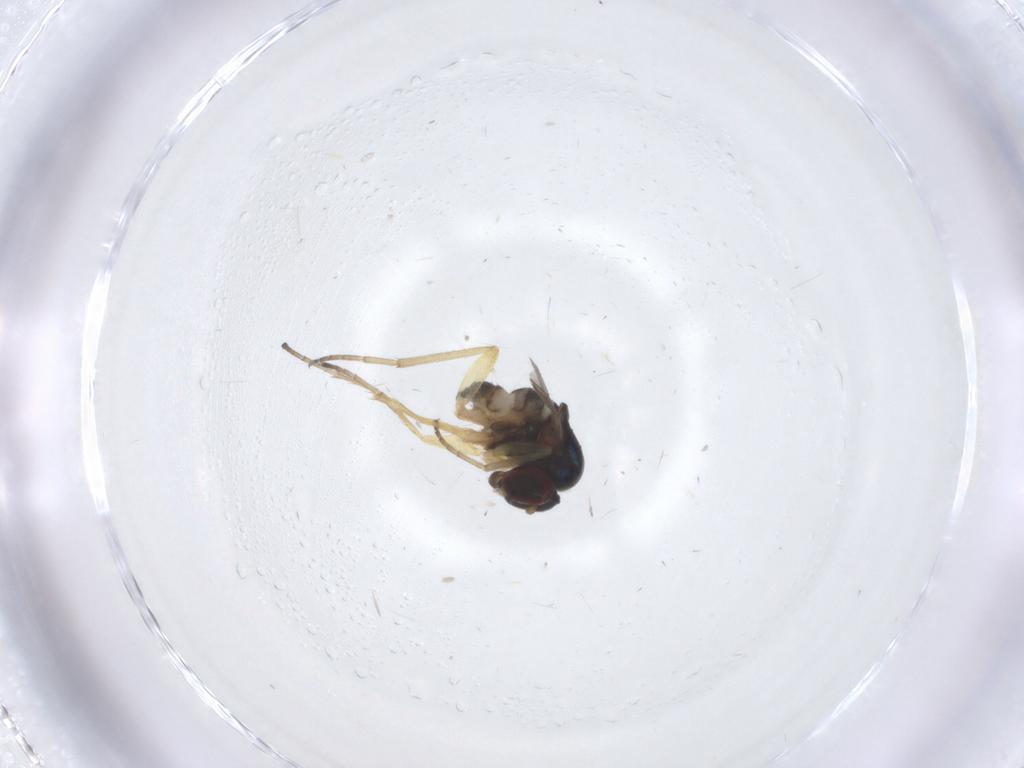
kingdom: Animalia
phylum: Arthropoda
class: Insecta
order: Diptera
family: Dolichopodidae
